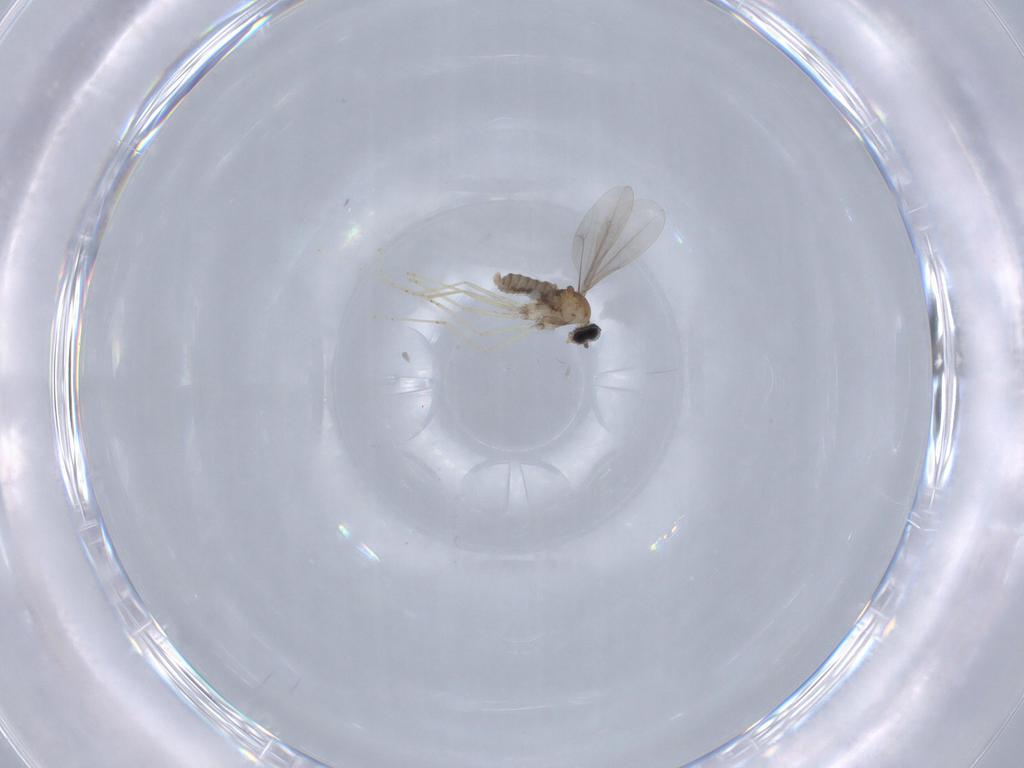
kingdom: Animalia
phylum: Arthropoda
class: Insecta
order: Diptera
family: Cecidomyiidae
